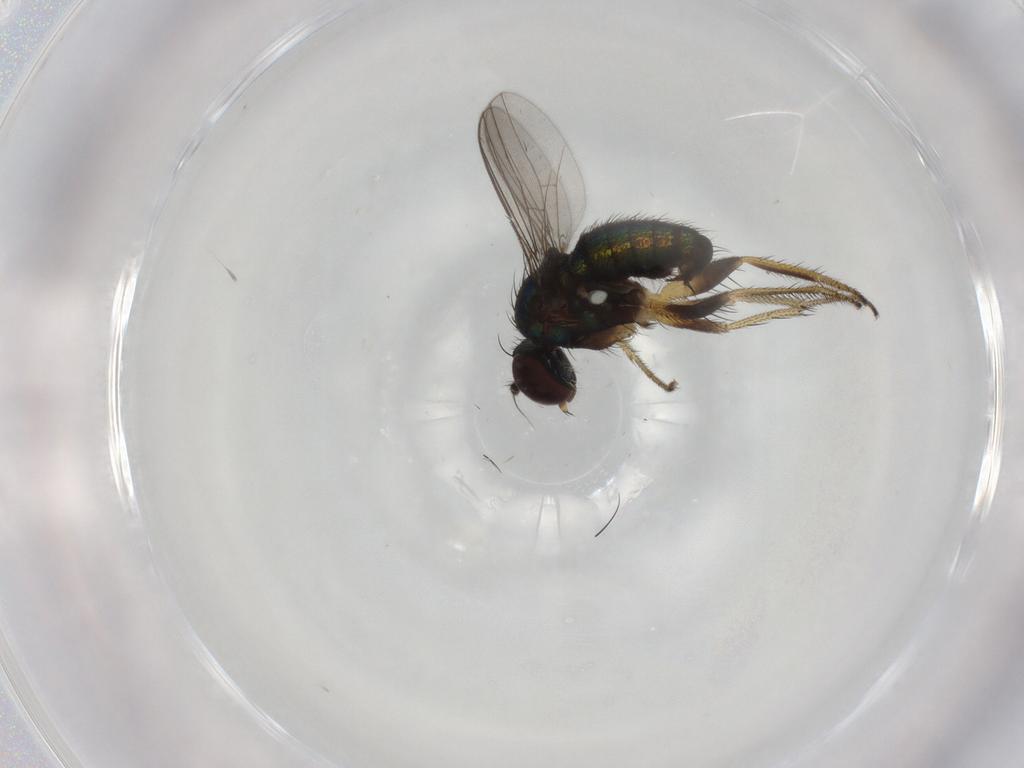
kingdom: Animalia
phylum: Arthropoda
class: Insecta
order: Diptera
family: Dolichopodidae
